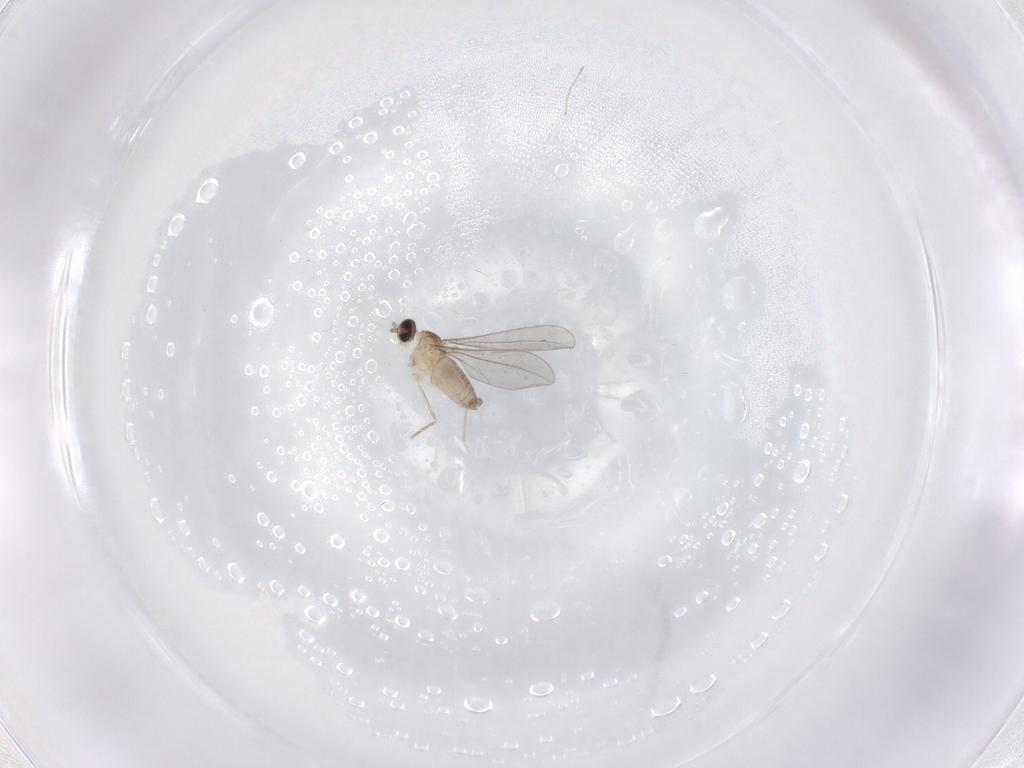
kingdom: Animalia
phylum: Arthropoda
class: Insecta
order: Diptera
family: Cecidomyiidae
